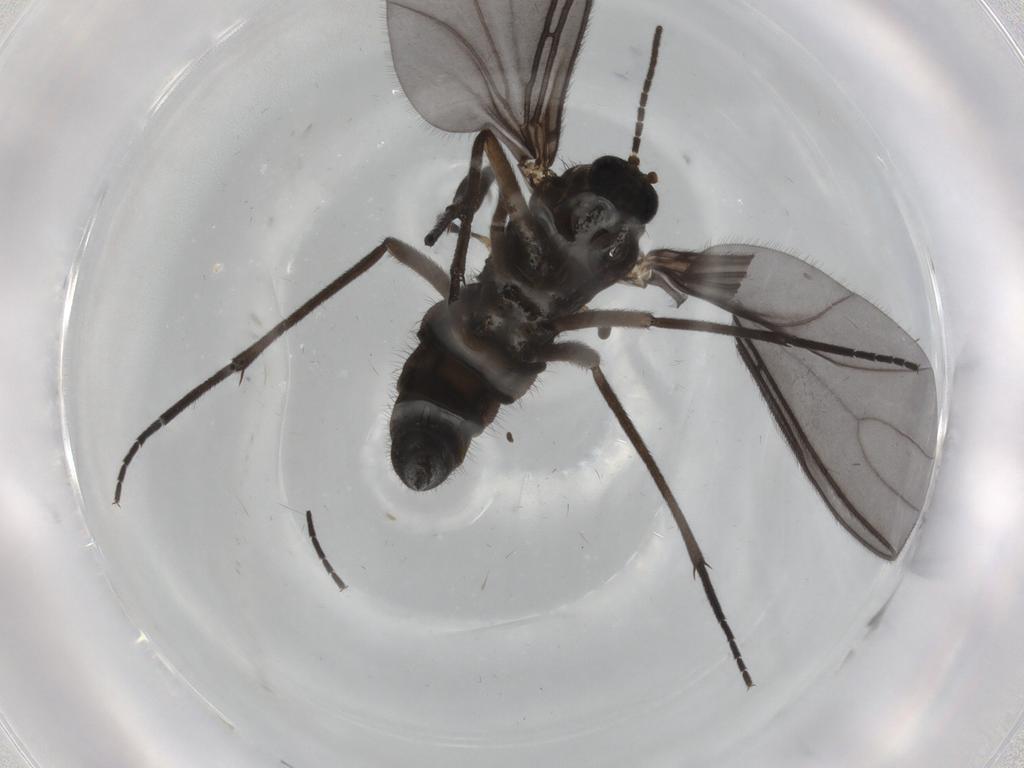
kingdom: Animalia
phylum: Arthropoda
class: Insecta
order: Diptera
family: Sciaridae
